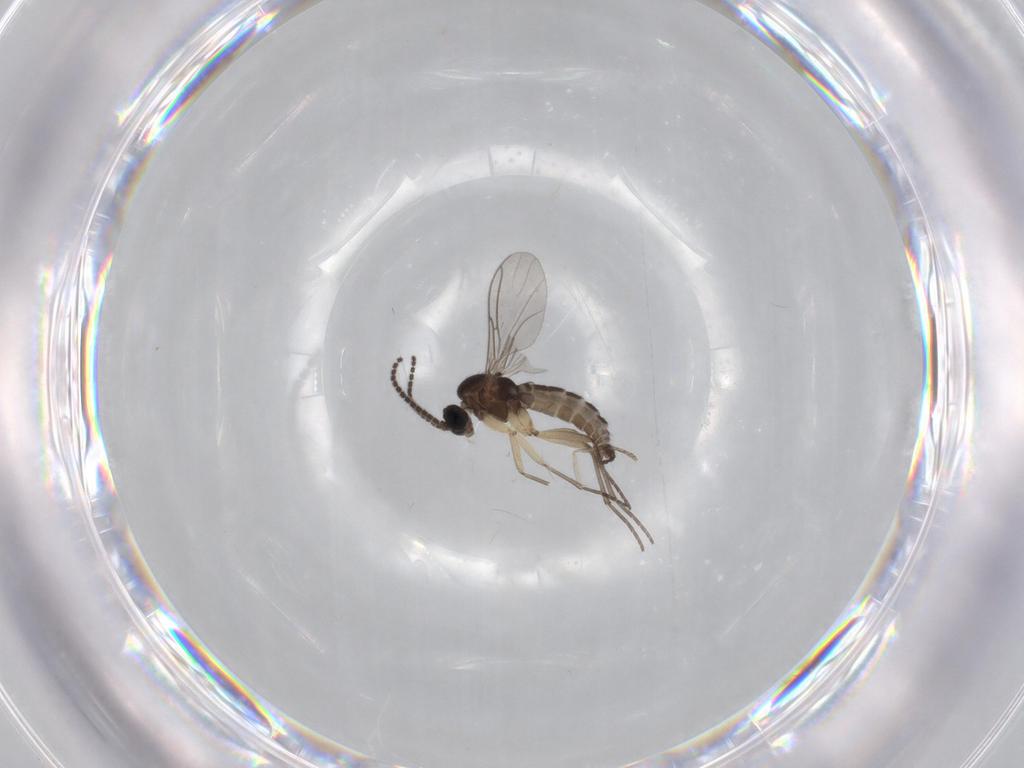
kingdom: Animalia
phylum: Arthropoda
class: Insecta
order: Diptera
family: Sciaridae
